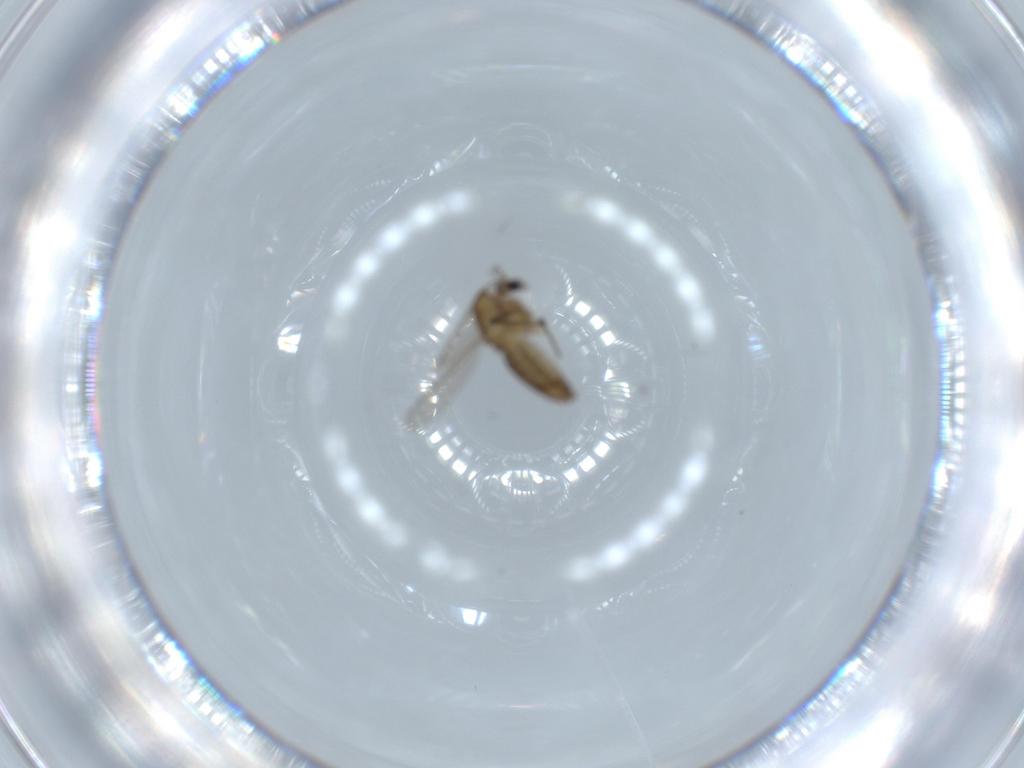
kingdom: Animalia
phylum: Arthropoda
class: Insecta
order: Diptera
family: Chironomidae
